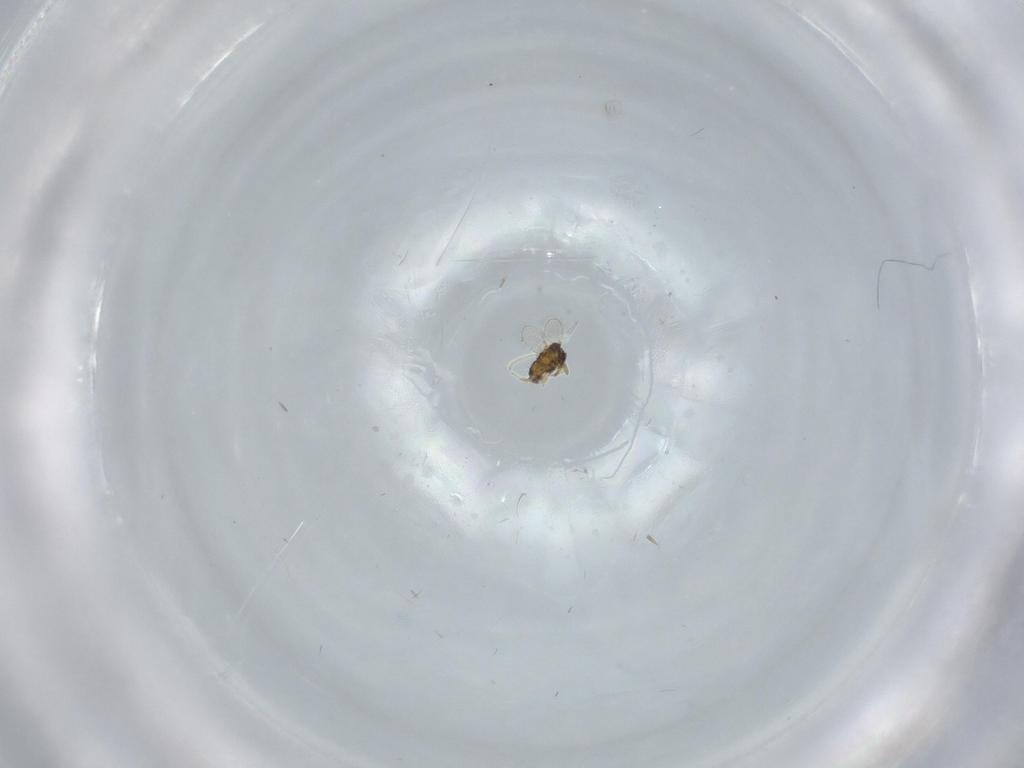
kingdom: Animalia
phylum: Arthropoda
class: Insecta
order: Hymenoptera
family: Aphelinidae
